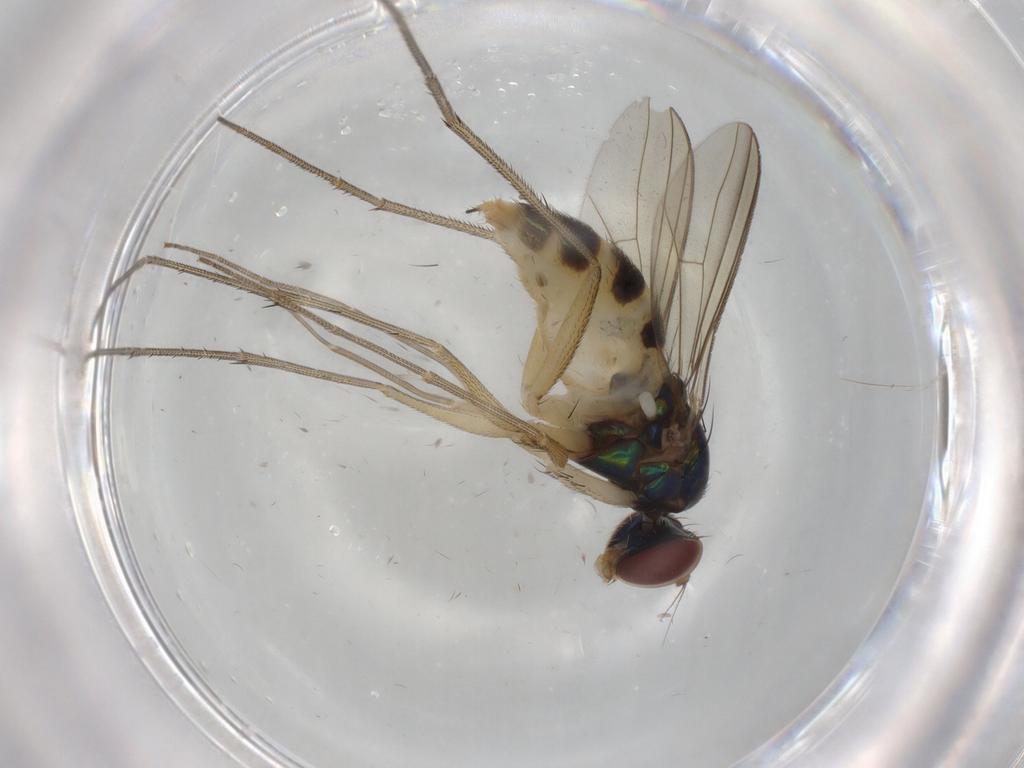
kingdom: Animalia
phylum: Arthropoda
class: Insecta
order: Diptera
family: Dolichopodidae
